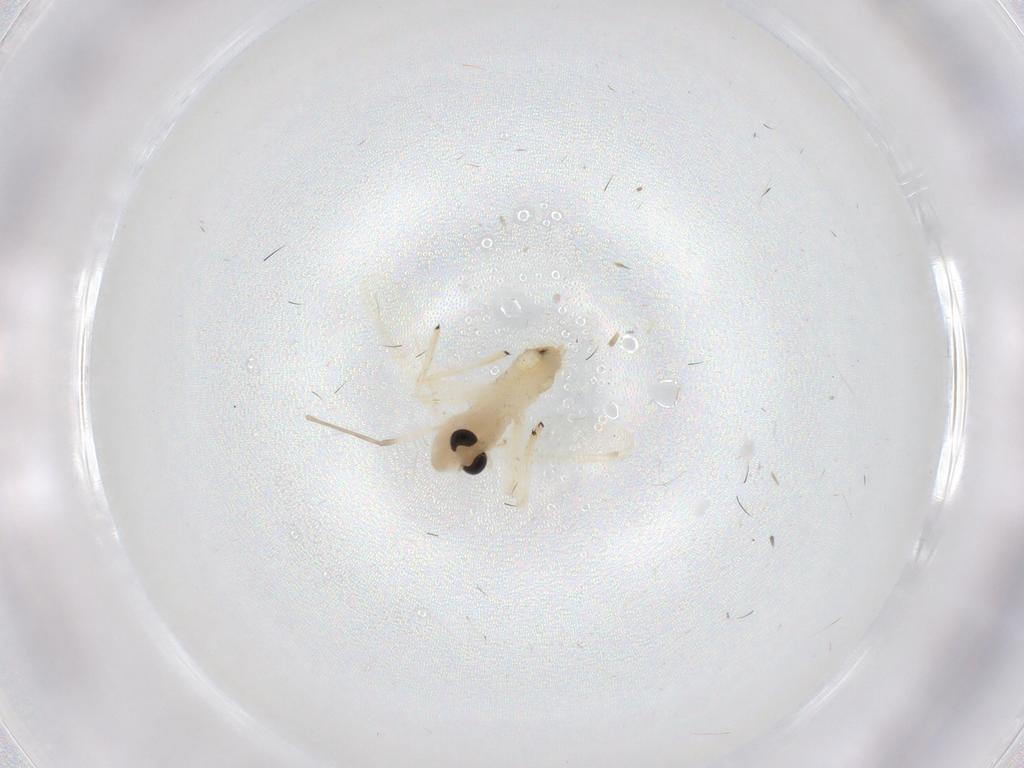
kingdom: Animalia
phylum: Arthropoda
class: Insecta
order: Diptera
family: Chironomidae
